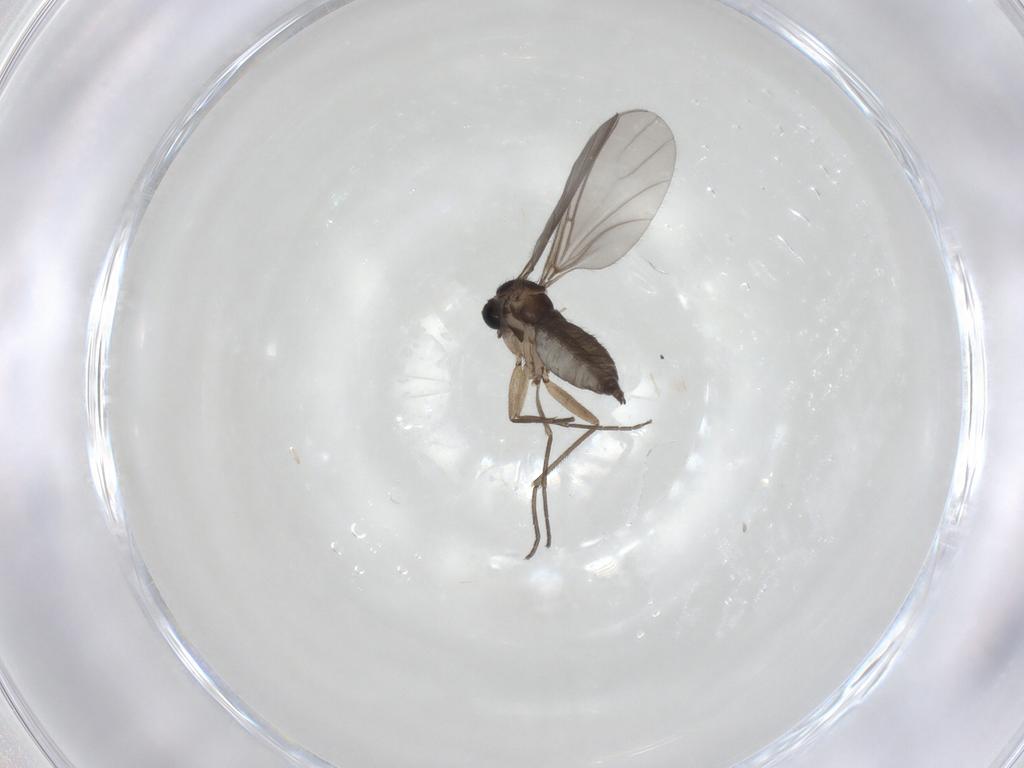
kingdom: Animalia
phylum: Arthropoda
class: Insecta
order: Diptera
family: Sciaridae
